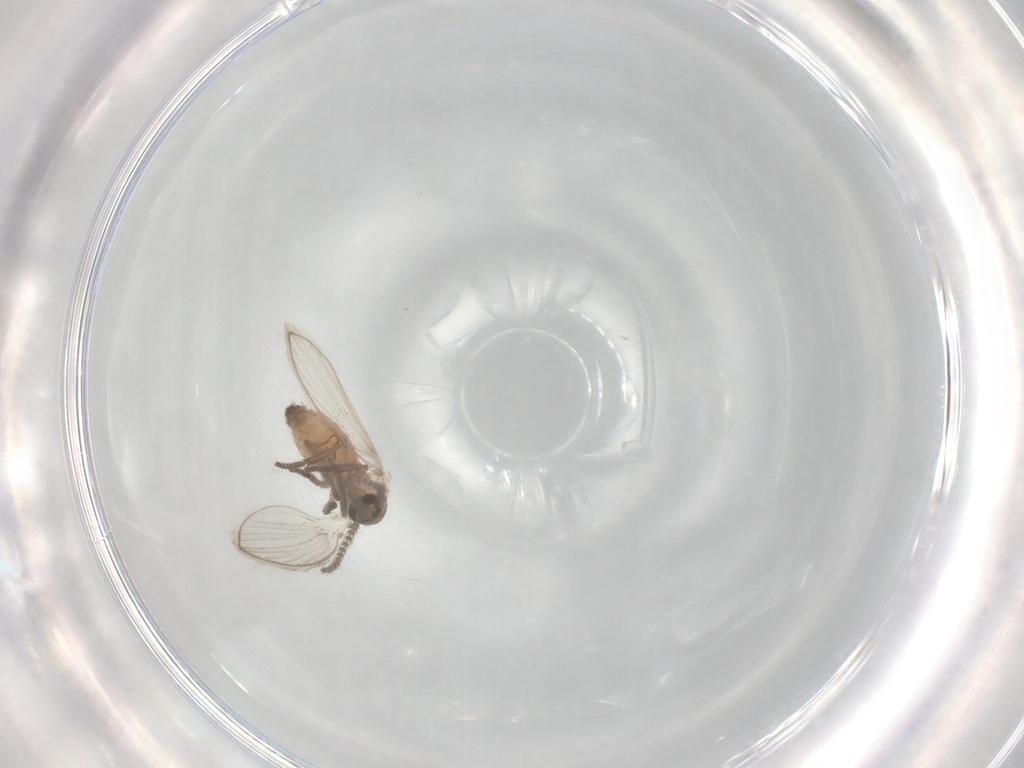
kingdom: Animalia
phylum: Arthropoda
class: Insecta
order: Diptera
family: Psychodidae
